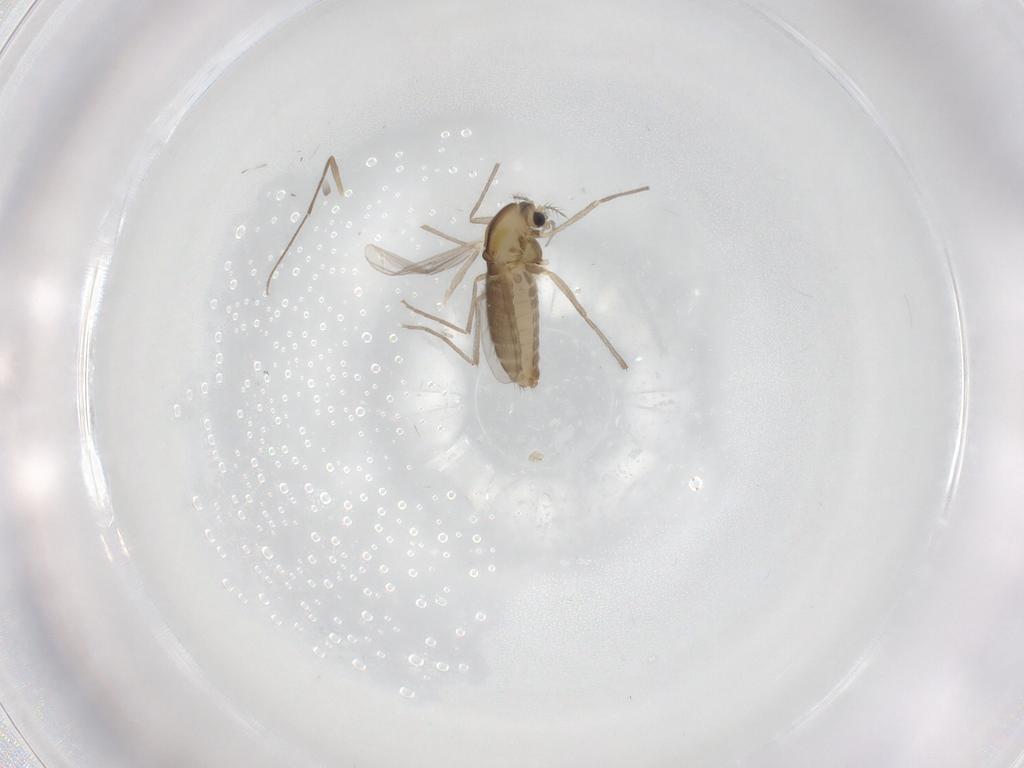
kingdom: Animalia
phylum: Arthropoda
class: Insecta
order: Diptera
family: Chironomidae
